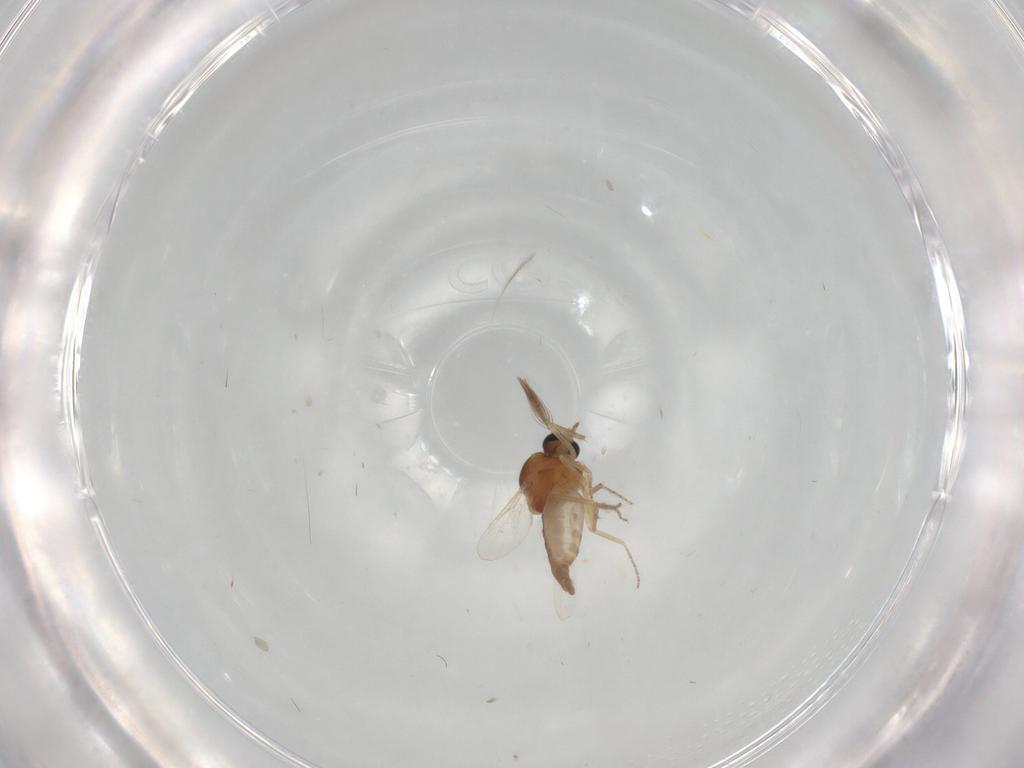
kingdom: Animalia
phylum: Arthropoda
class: Insecta
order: Diptera
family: Ceratopogonidae
